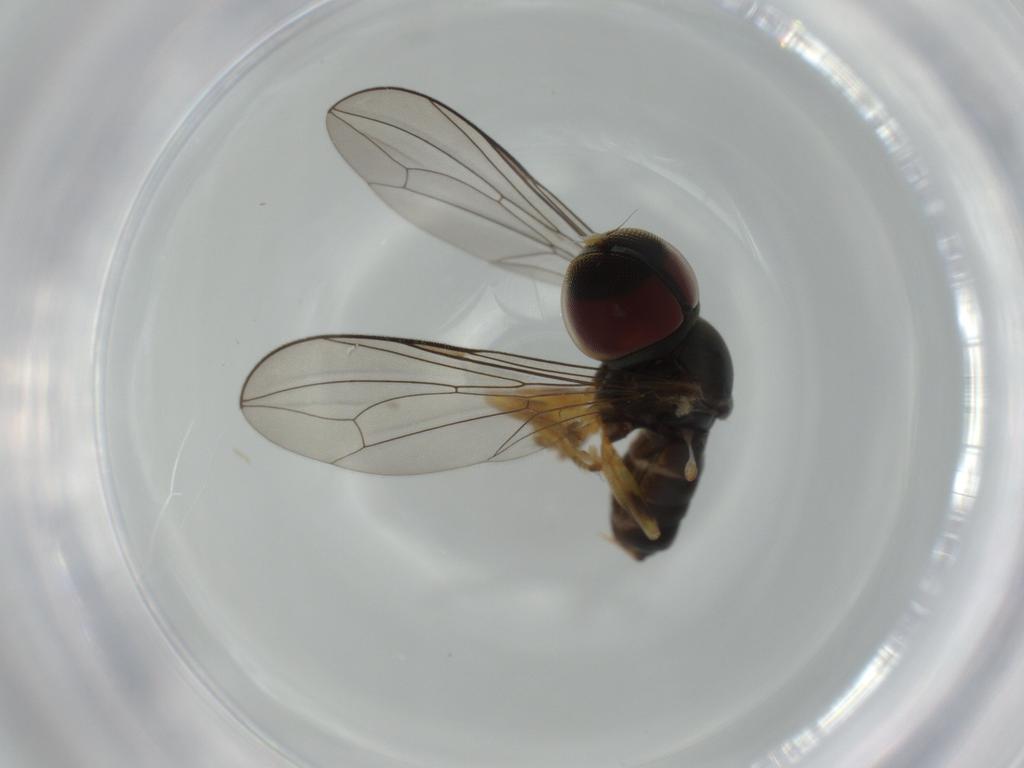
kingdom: Animalia
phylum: Arthropoda
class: Insecta
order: Diptera
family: Pipunculidae
